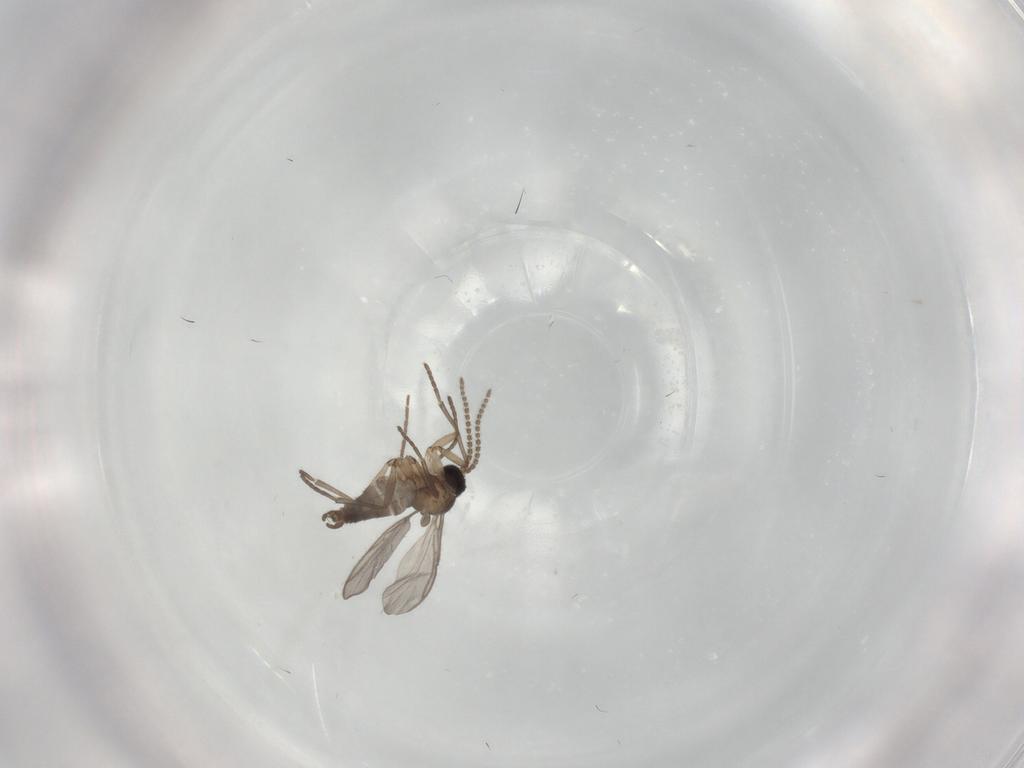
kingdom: Animalia
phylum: Arthropoda
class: Insecta
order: Diptera
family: Chironomidae
